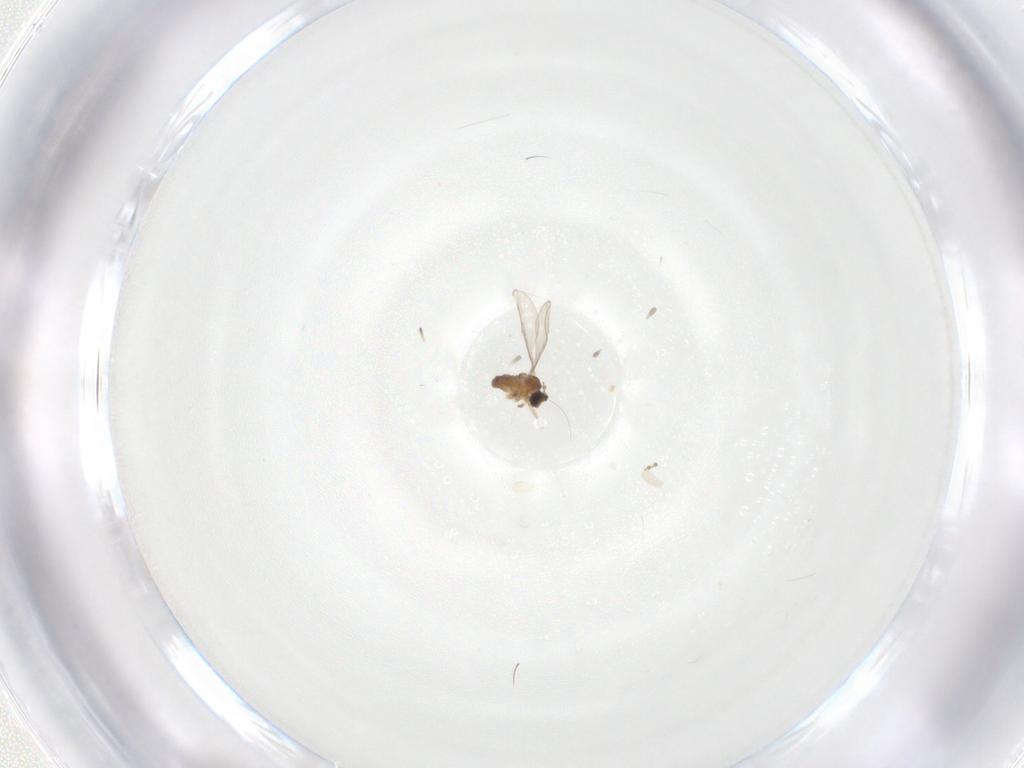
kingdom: Animalia
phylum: Arthropoda
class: Insecta
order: Diptera
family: Cecidomyiidae
